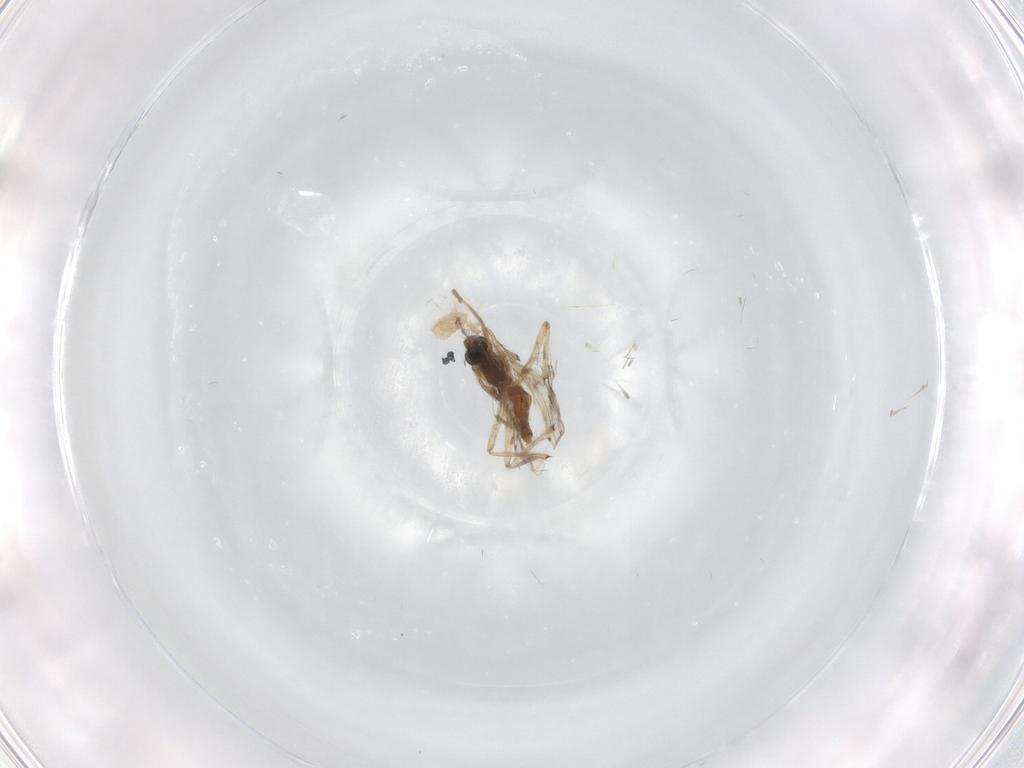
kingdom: Animalia
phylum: Arthropoda
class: Insecta
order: Diptera
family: Chironomidae
